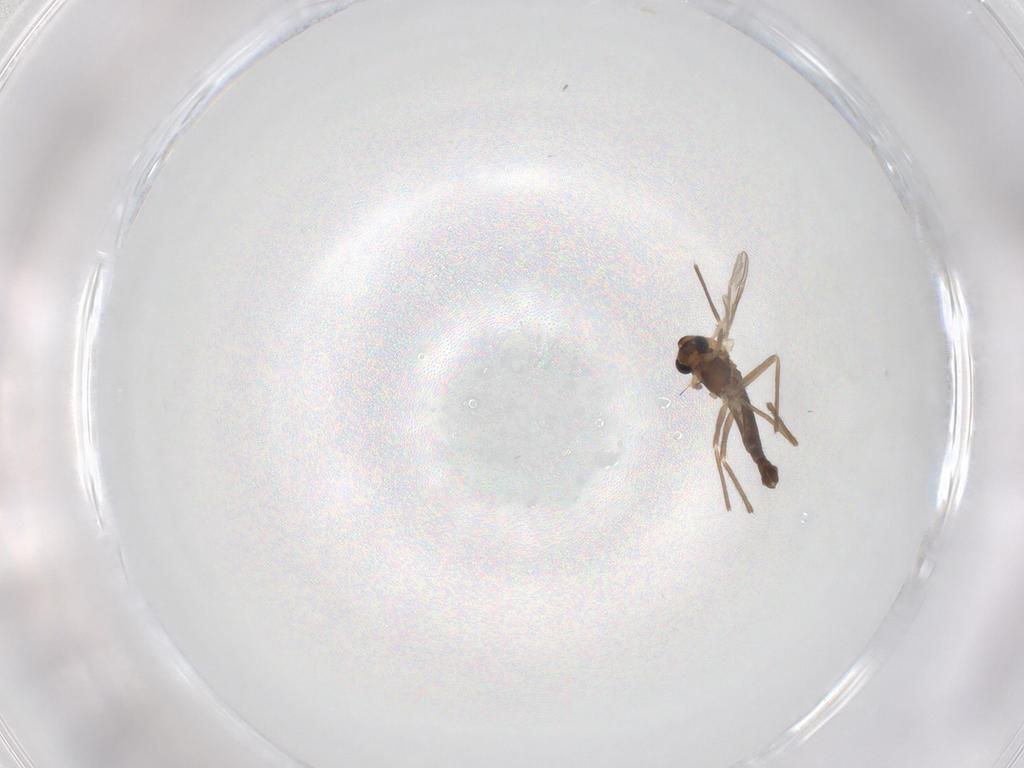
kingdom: Animalia
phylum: Arthropoda
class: Insecta
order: Diptera
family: Chironomidae
